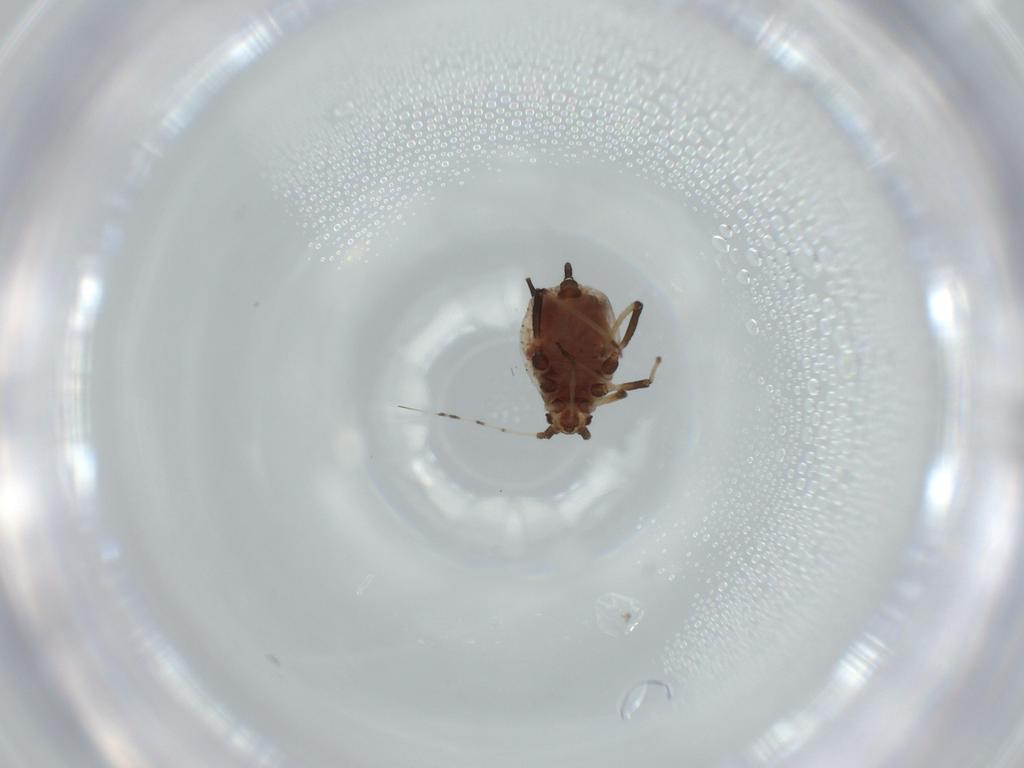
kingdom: Animalia
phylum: Arthropoda
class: Insecta
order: Hemiptera
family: Aphididae
